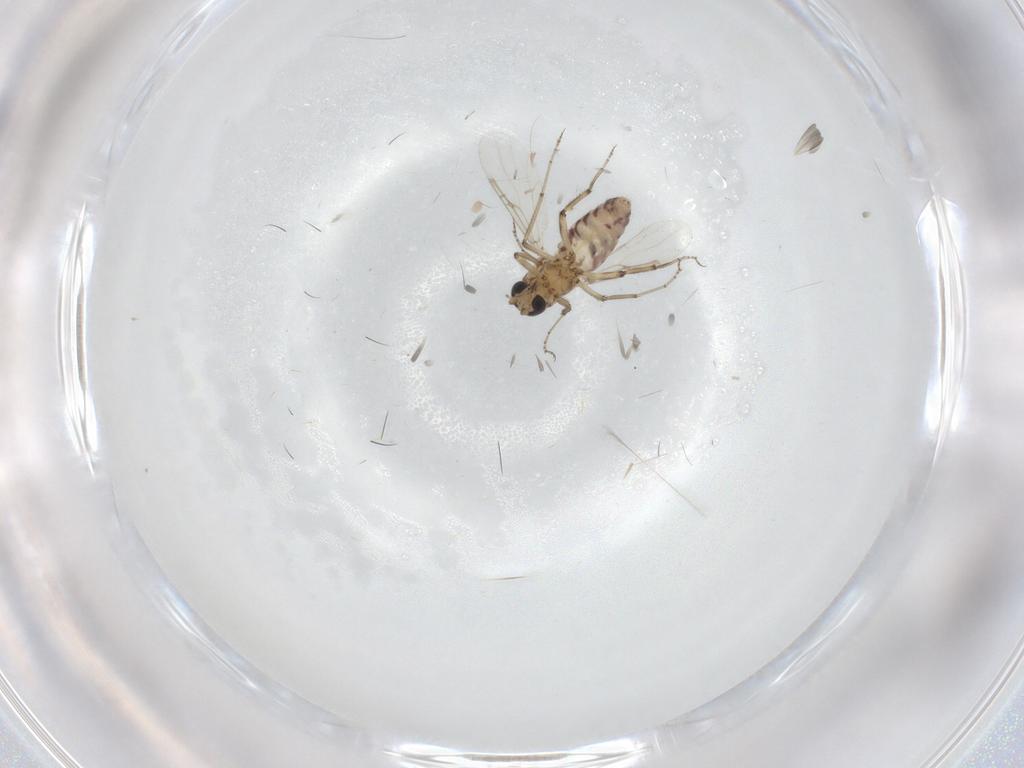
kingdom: Animalia
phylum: Arthropoda
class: Insecta
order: Diptera
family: Ceratopogonidae
